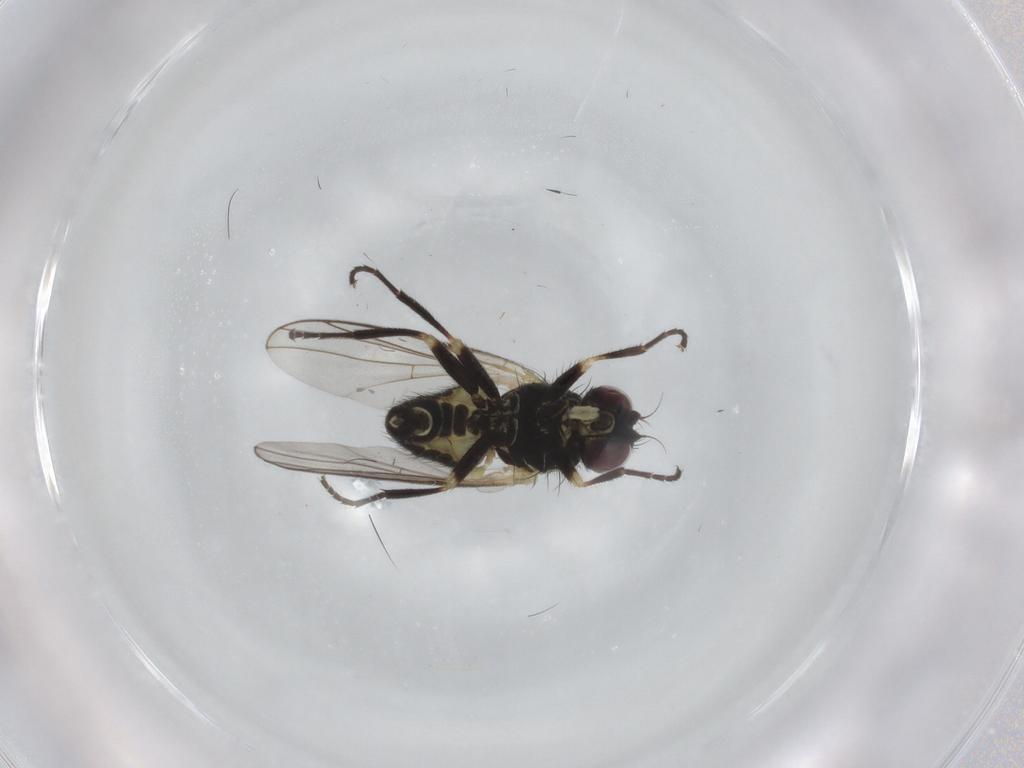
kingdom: Animalia
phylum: Arthropoda
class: Insecta
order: Diptera
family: Agromyzidae
